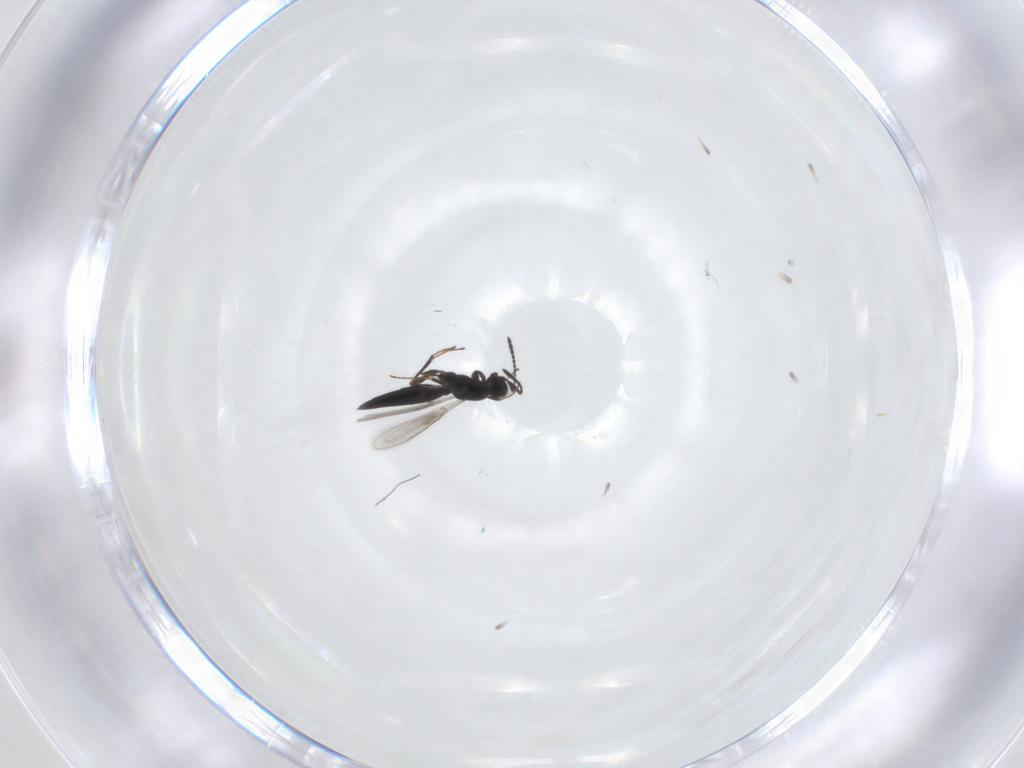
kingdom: Animalia
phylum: Arthropoda
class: Insecta
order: Hymenoptera
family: Scelionidae
